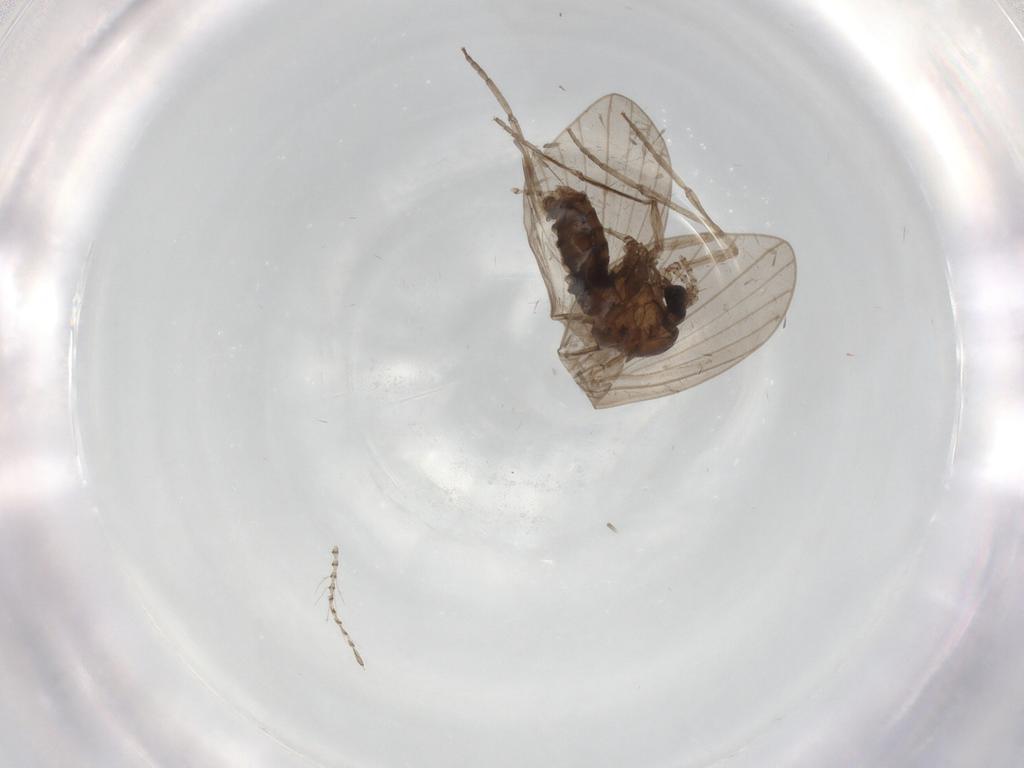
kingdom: Animalia
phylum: Arthropoda
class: Insecta
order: Diptera
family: Psychodidae
